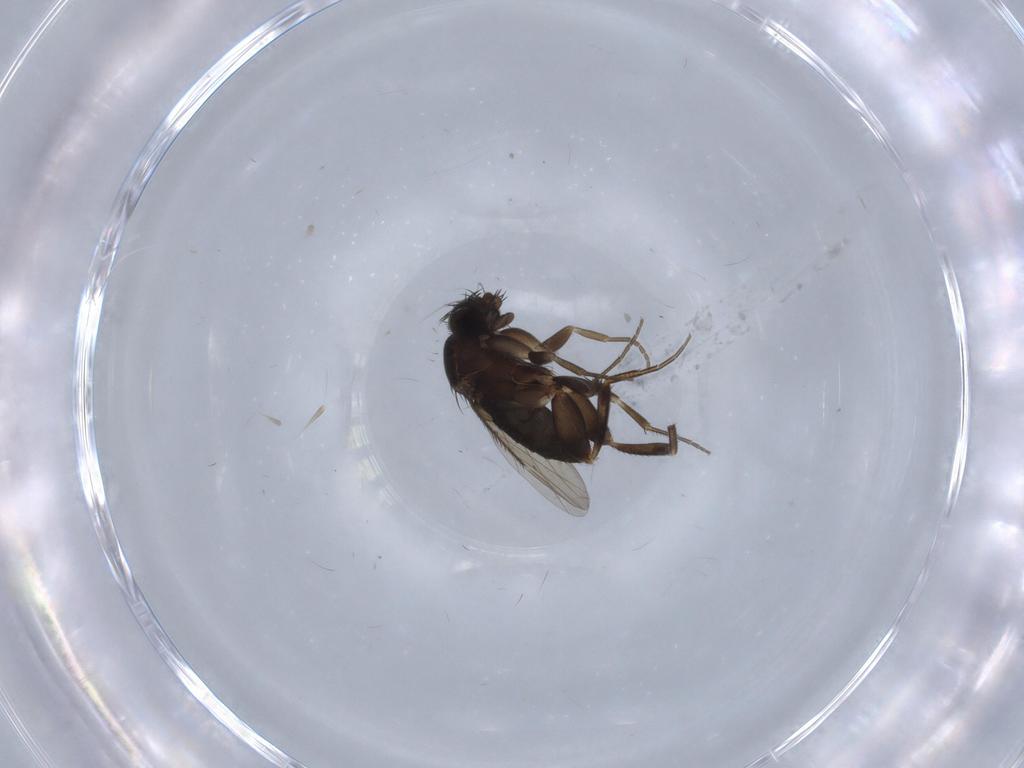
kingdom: Animalia
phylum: Arthropoda
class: Insecta
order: Diptera
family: Phoridae
